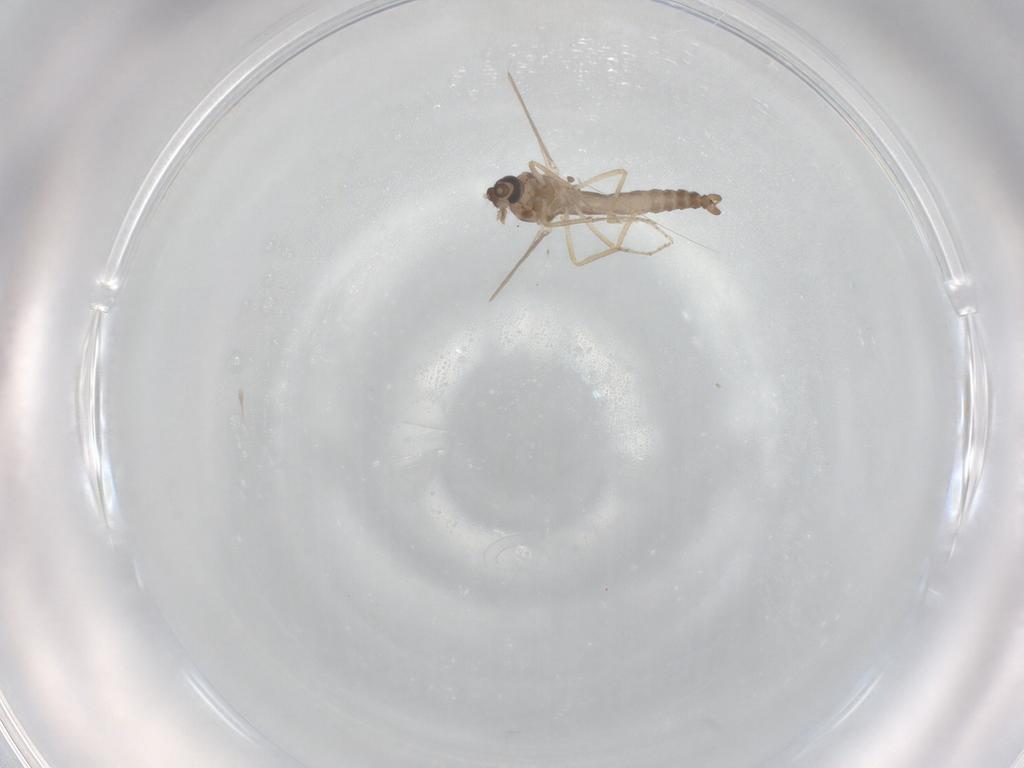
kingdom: Animalia
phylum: Arthropoda
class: Insecta
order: Diptera
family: Ceratopogonidae
